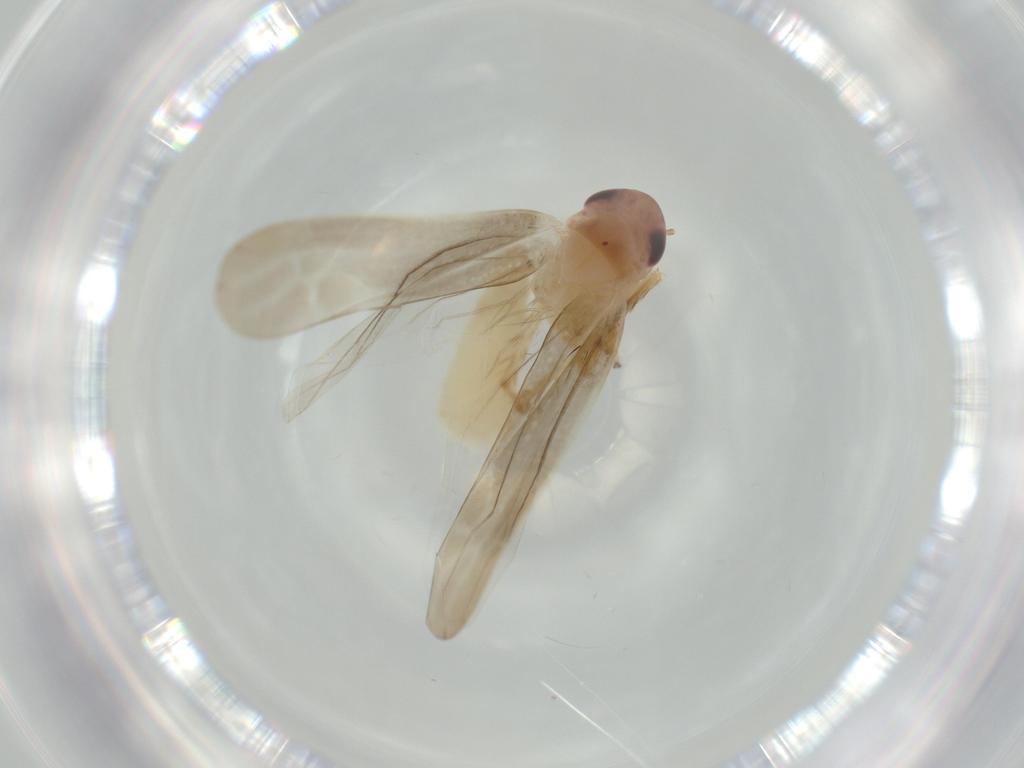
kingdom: Animalia
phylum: Arthropoda
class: Insecta
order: Hemiptera
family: Cicadellidae
